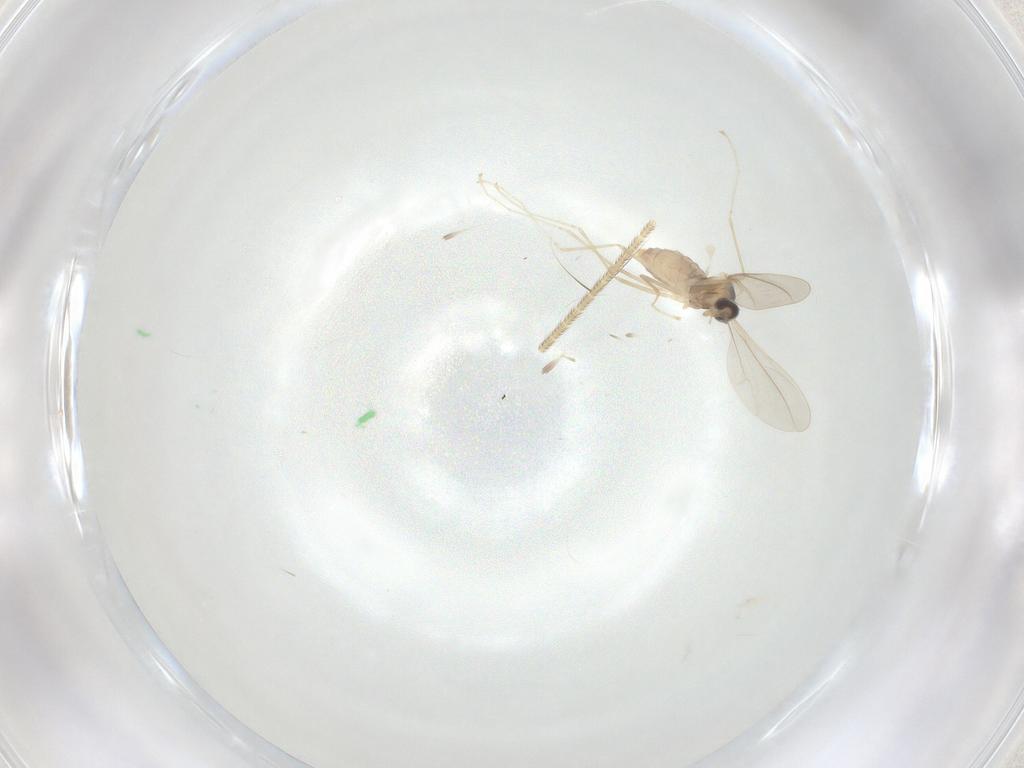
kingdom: Animalia
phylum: Arthropoda
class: Insecta
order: Diptera
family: Cecidomyiidae
